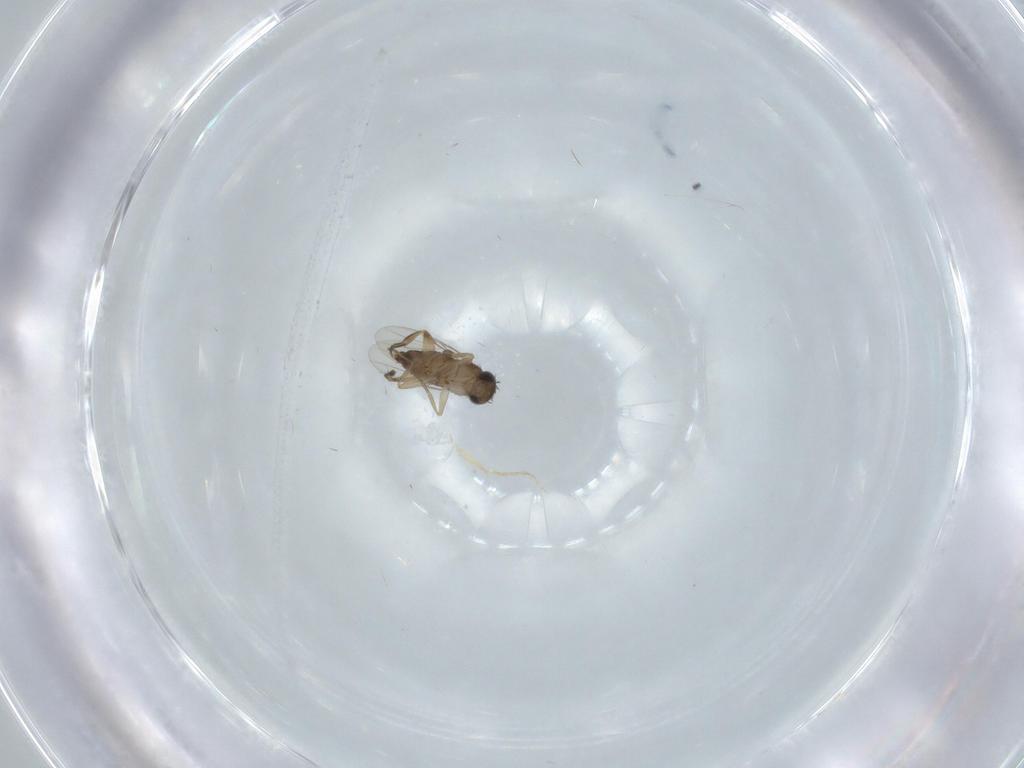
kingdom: Animalia
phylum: Arthropoda
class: Insecta
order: Diptera
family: Phoridae
